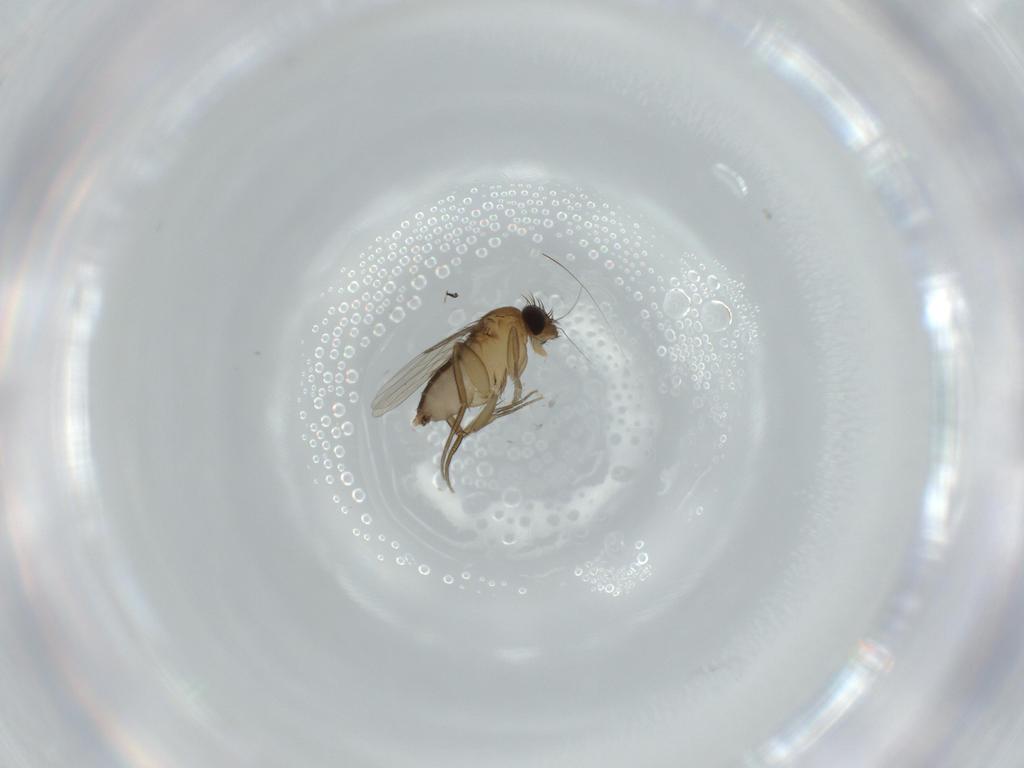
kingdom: Animalia
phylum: Arthropoda
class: Insecta
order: Diptera
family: Phoridae
